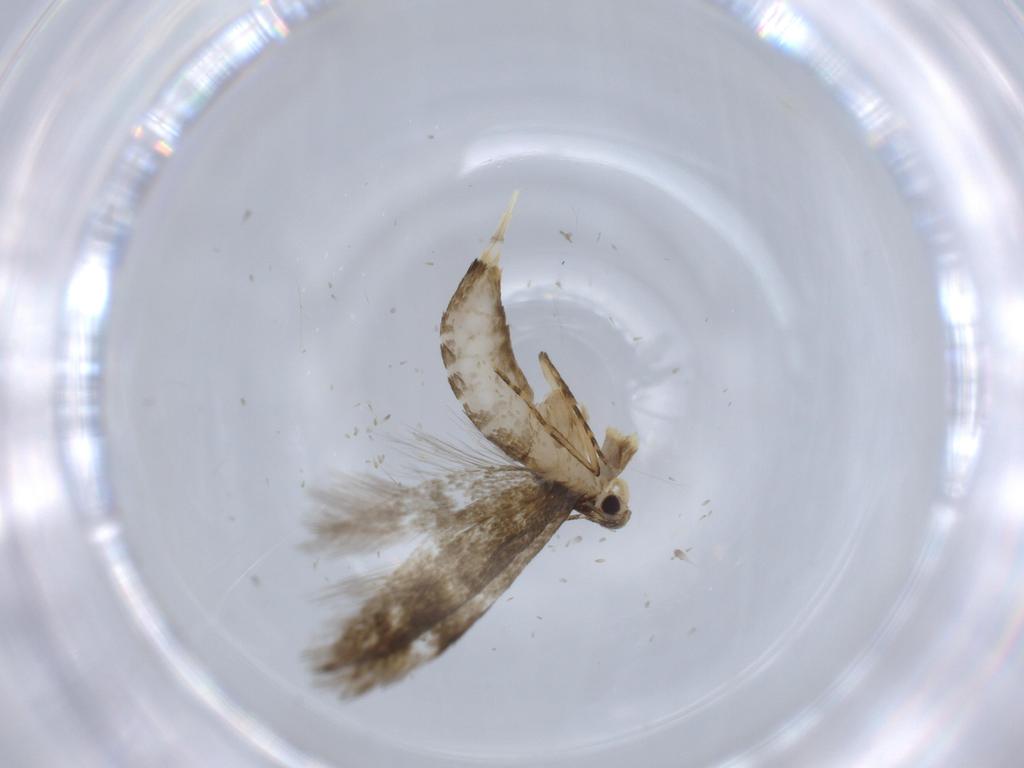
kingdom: Animalia
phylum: Arthropoda
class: Insecta
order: Lepidoptera
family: Tineidae
